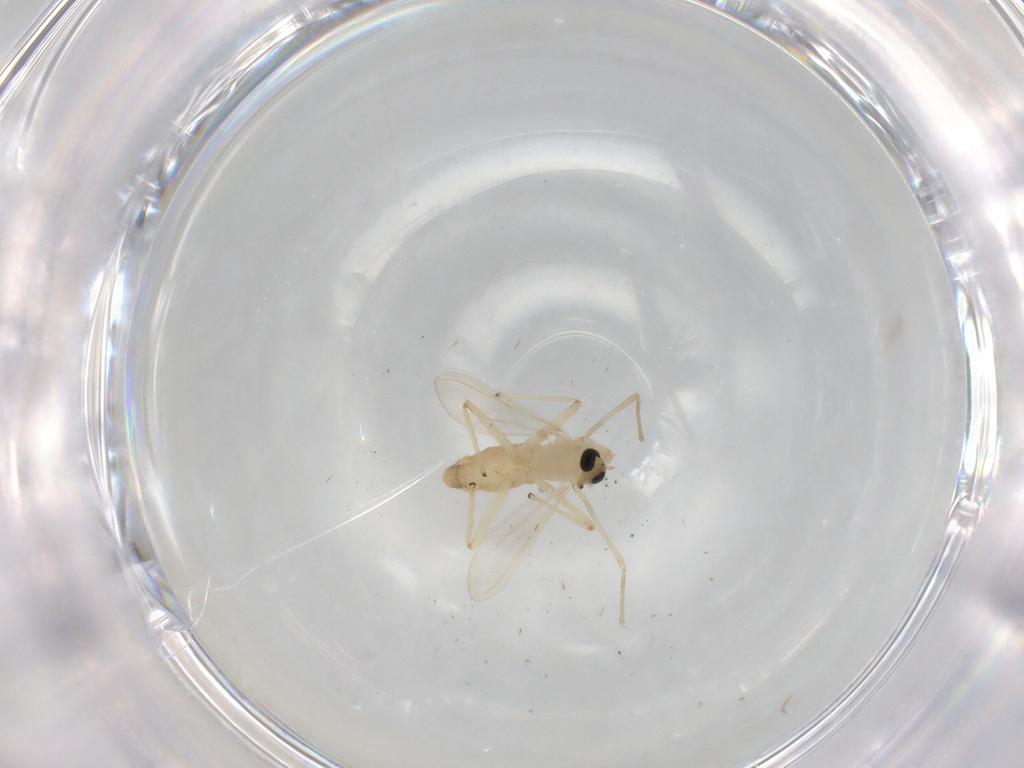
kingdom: Animalia
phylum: Arthropoda
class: Insecta
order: Diptera
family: Chironomidae
